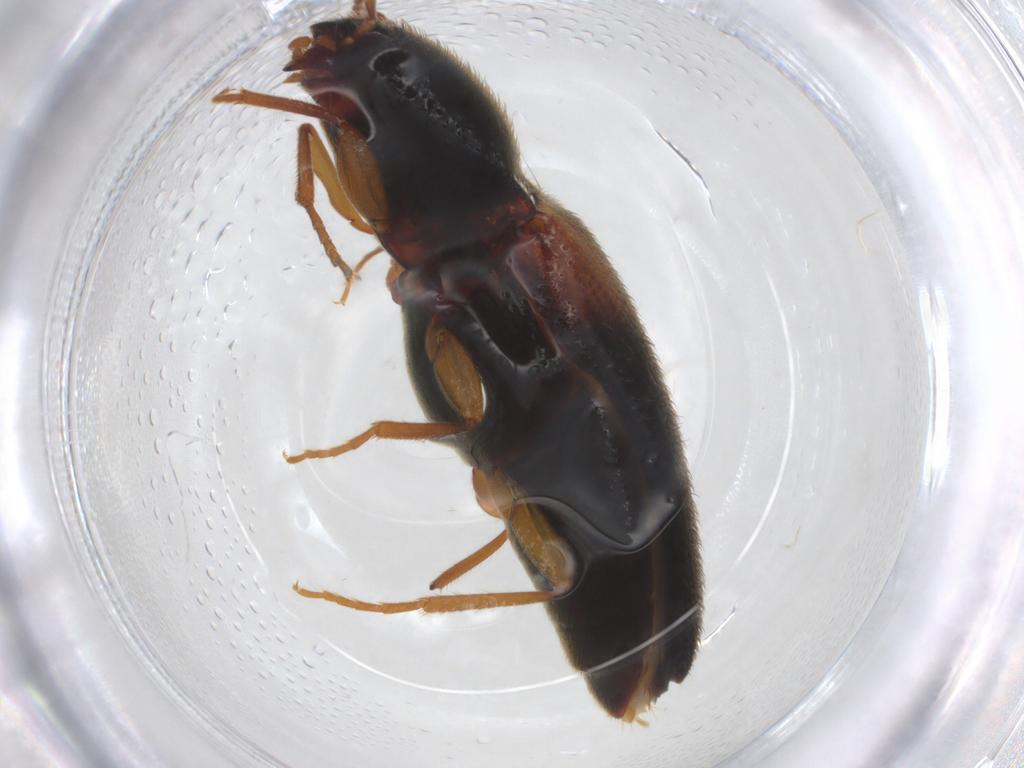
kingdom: Animalia
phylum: Arthropoda
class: Insecta
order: Coleoptera
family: Elateridae
